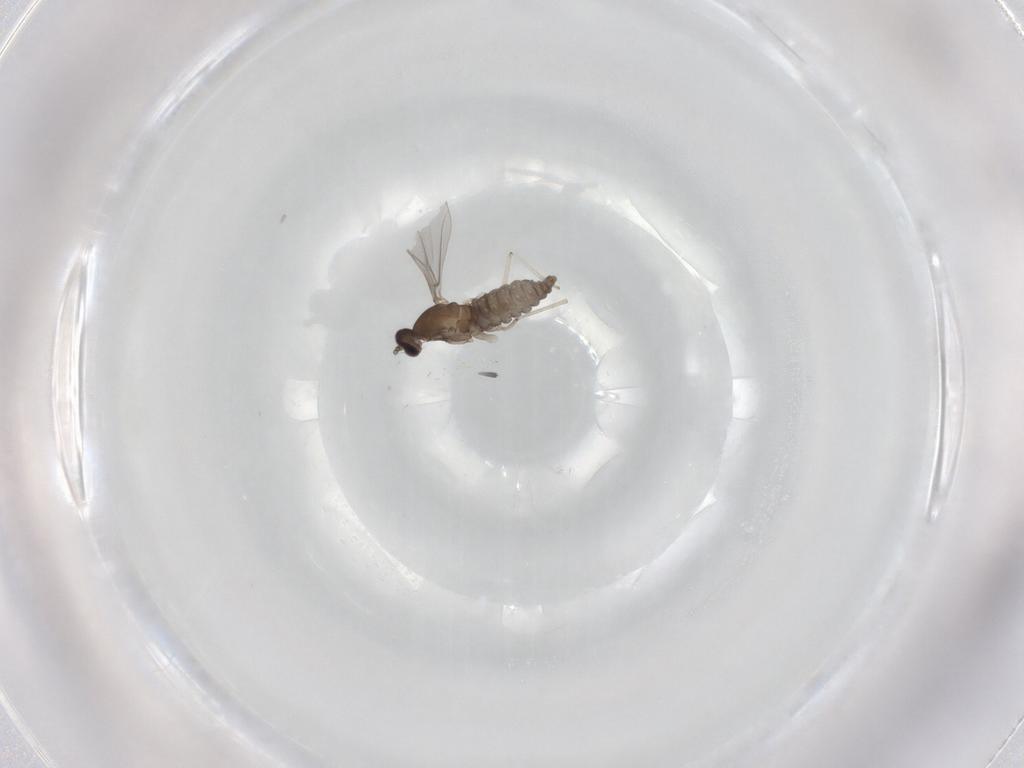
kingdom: Animalia
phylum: Arthropoda
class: Insecta
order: Diptera
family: Cecidomyiidae
